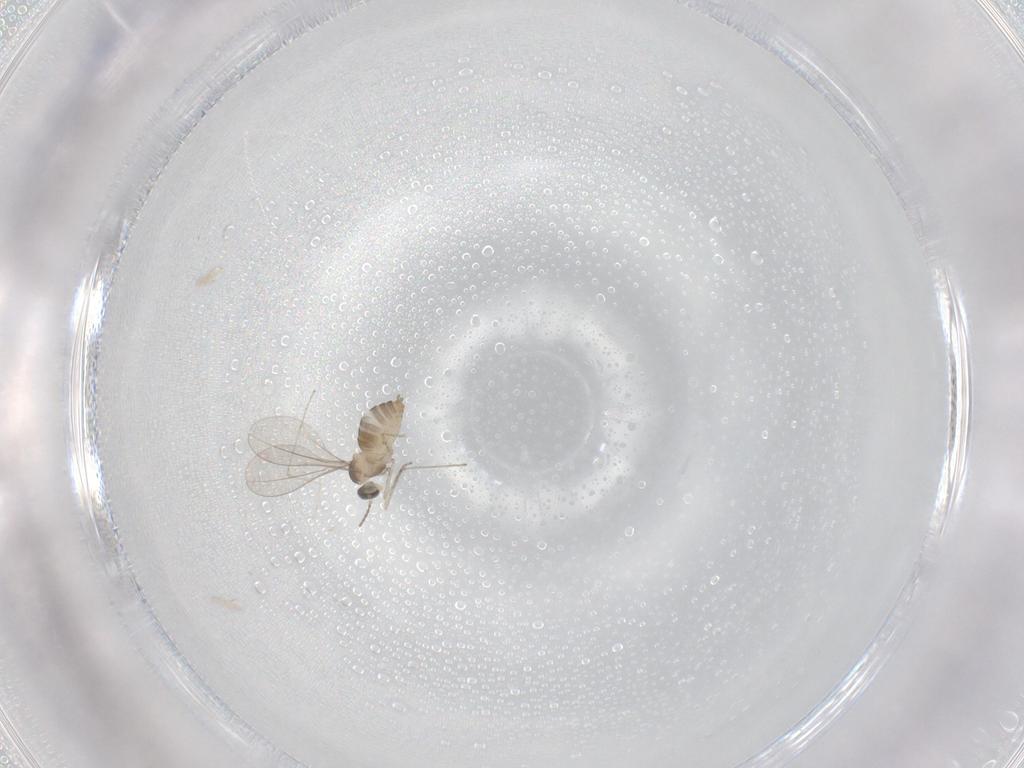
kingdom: Animalia
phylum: Arthropoda
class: Insecta
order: Diptera
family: Cecidomyiidae
